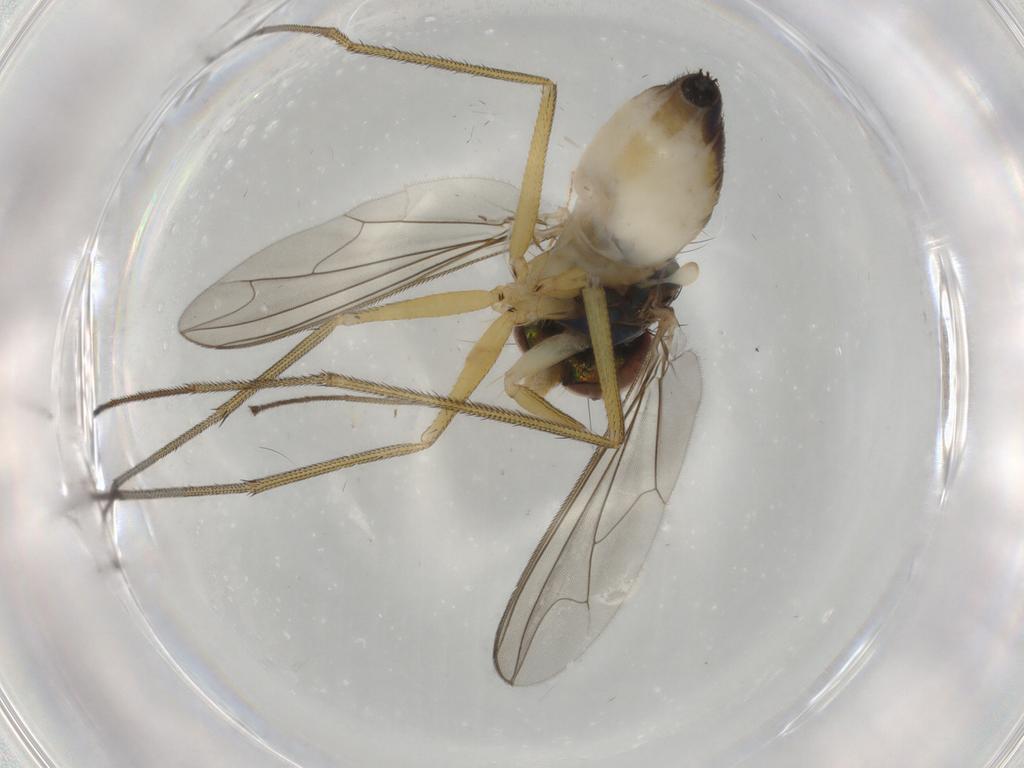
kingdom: Animalia
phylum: Arthropoda
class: Insecta
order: Diptera
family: Dolichopodidae
